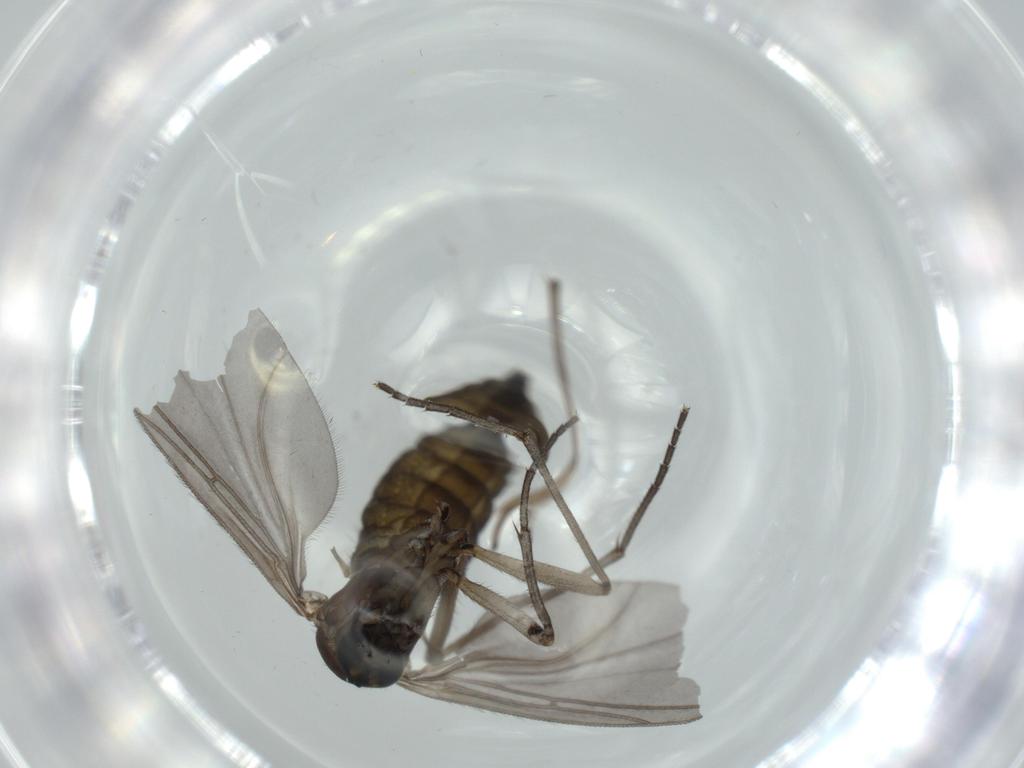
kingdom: Animalia
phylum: Arthropoda
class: Insecta
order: Diptera
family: Sciaridae
